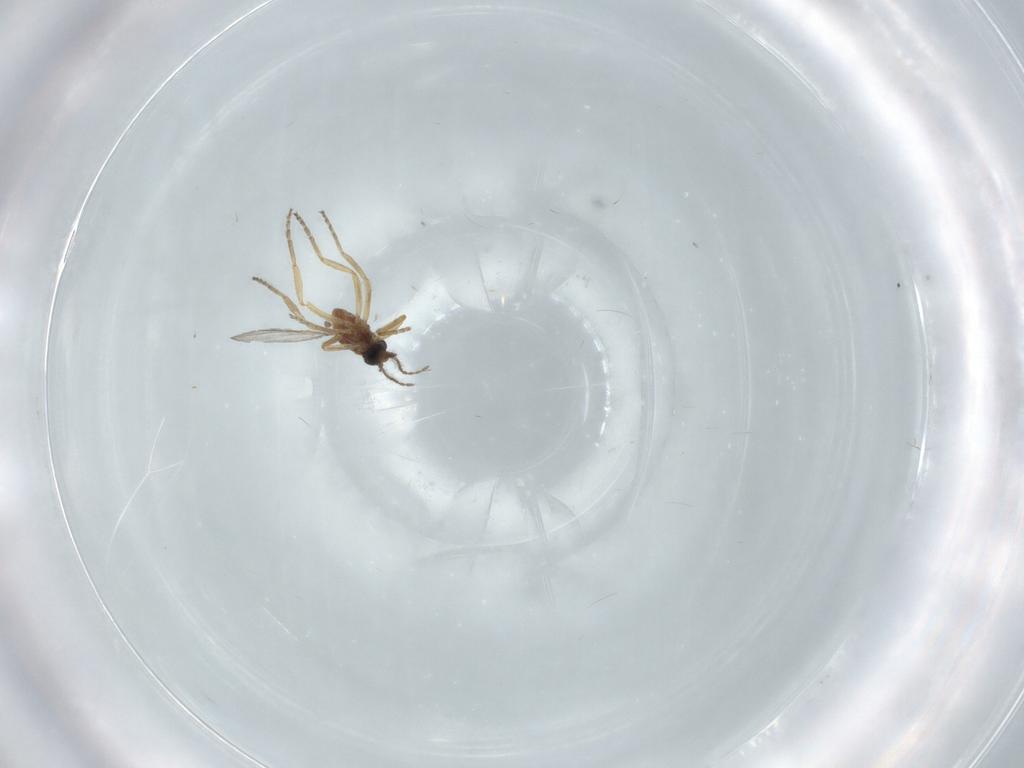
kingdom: Animalia
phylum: Arthropoda
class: Insecta
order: Diptera
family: Ceratopogonidae
